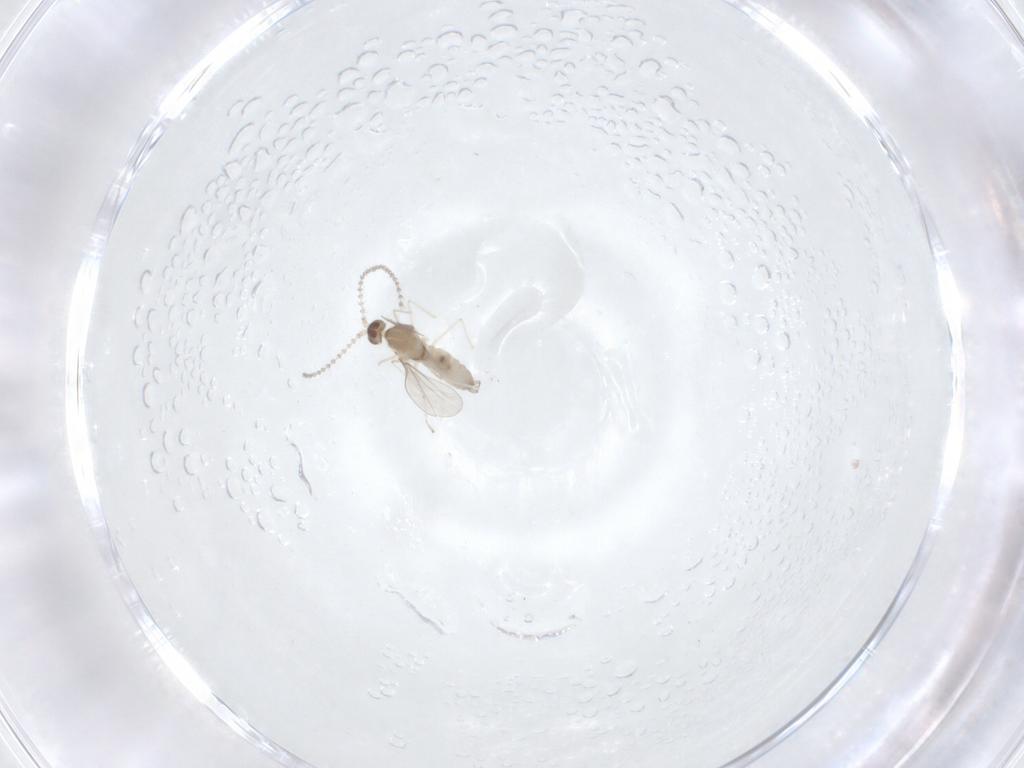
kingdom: Animalia
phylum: Arthropoda
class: Insecta
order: Diptera
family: Cecidomyiidae
